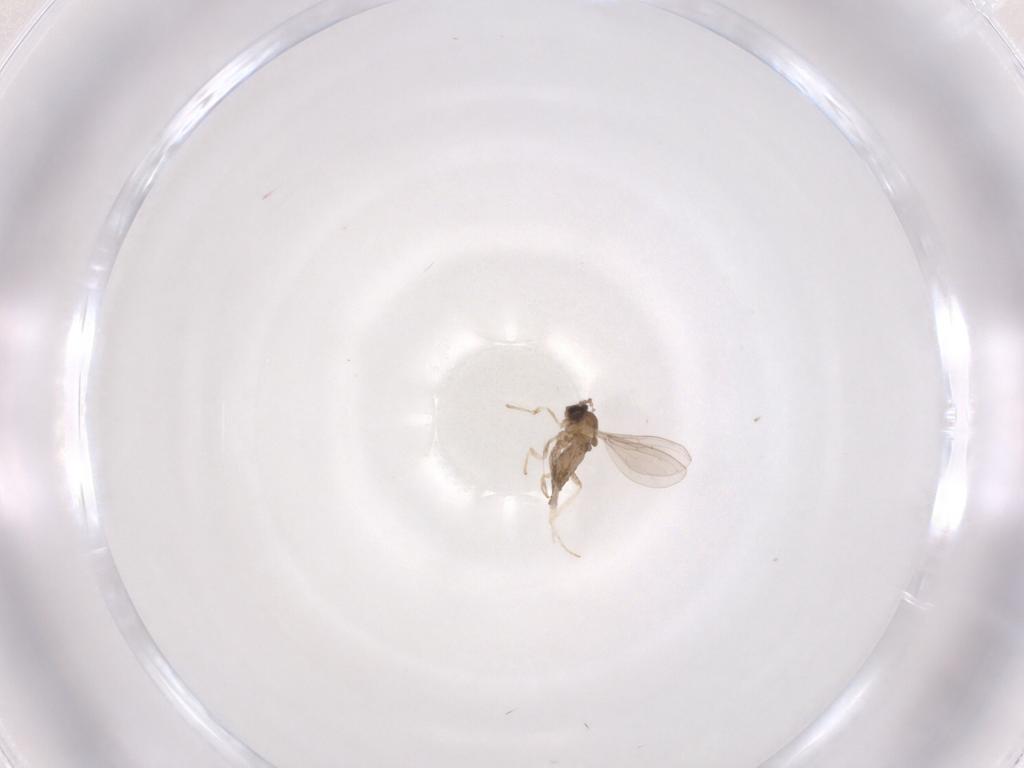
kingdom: Animalia
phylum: Arthropoda
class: Insecta
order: Diptera
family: Cecidomyiidae
